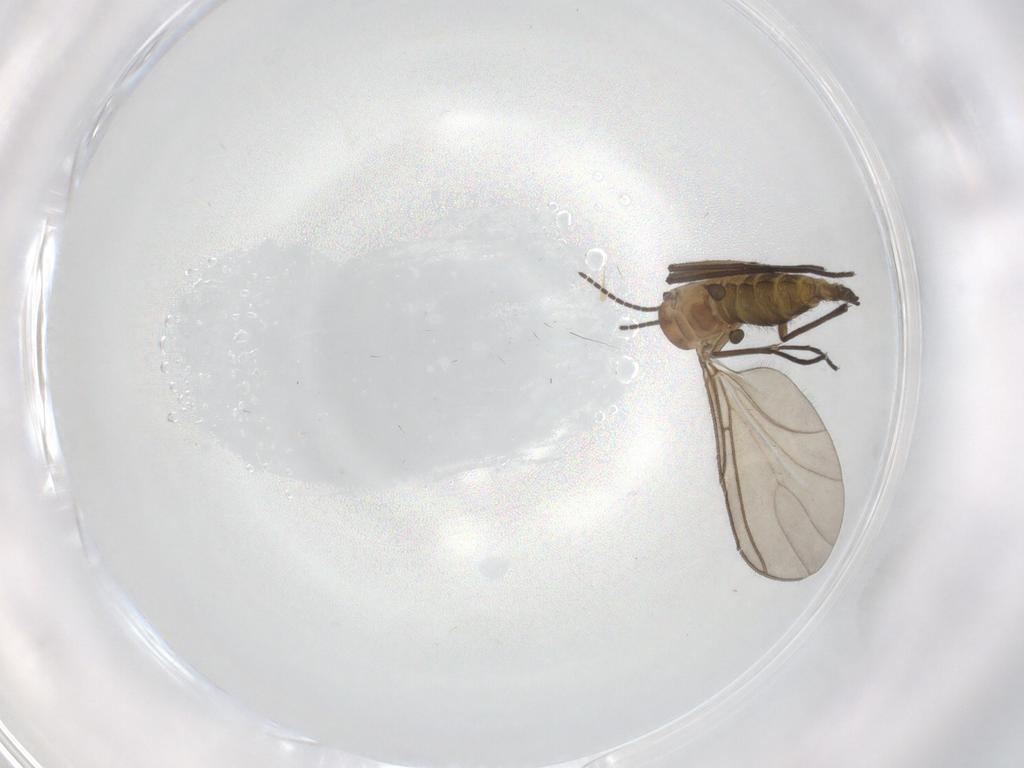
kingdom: Animalia
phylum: Arthropoda
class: Insecta
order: Diptera
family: Sciaridae
